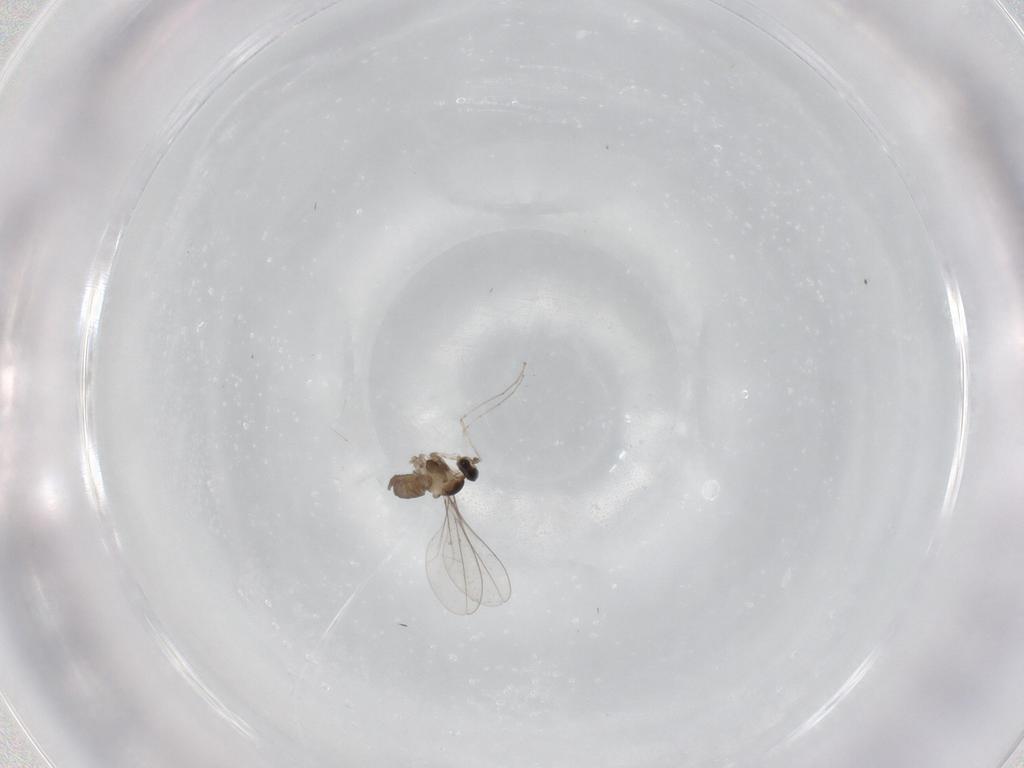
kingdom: Animalia
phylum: Arthropoda
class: Insecta
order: Diptera
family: Cecidomyiidae
